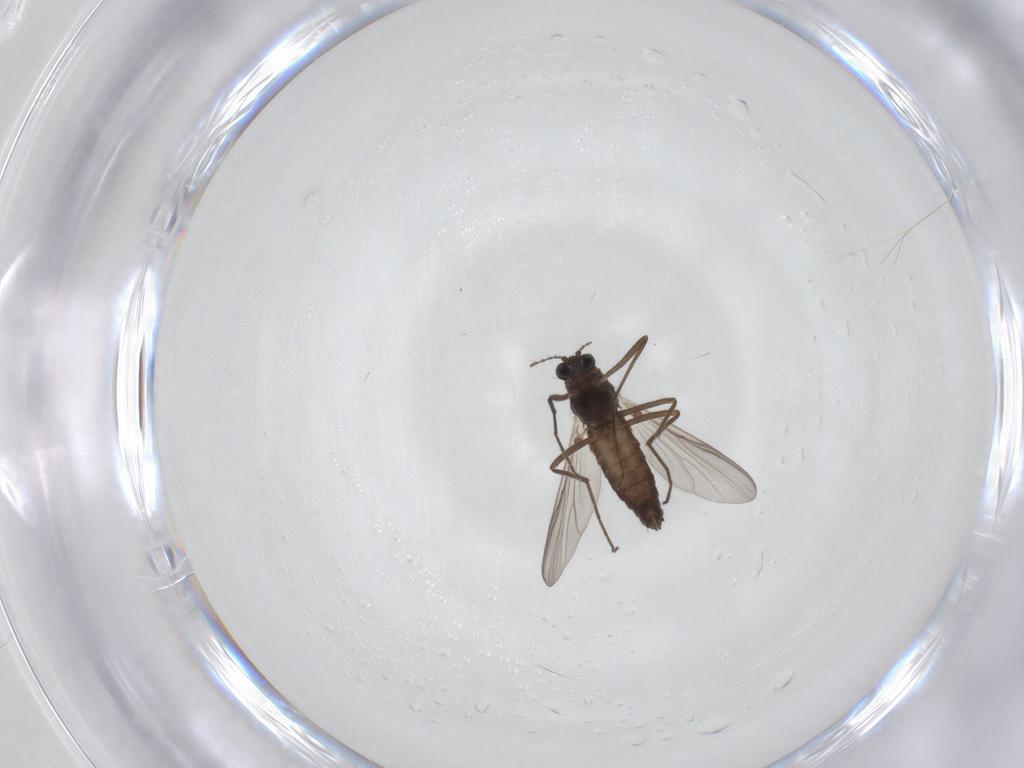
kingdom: Animalia
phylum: Arthropoda
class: Insecta
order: Diptera
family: Chironomidae
